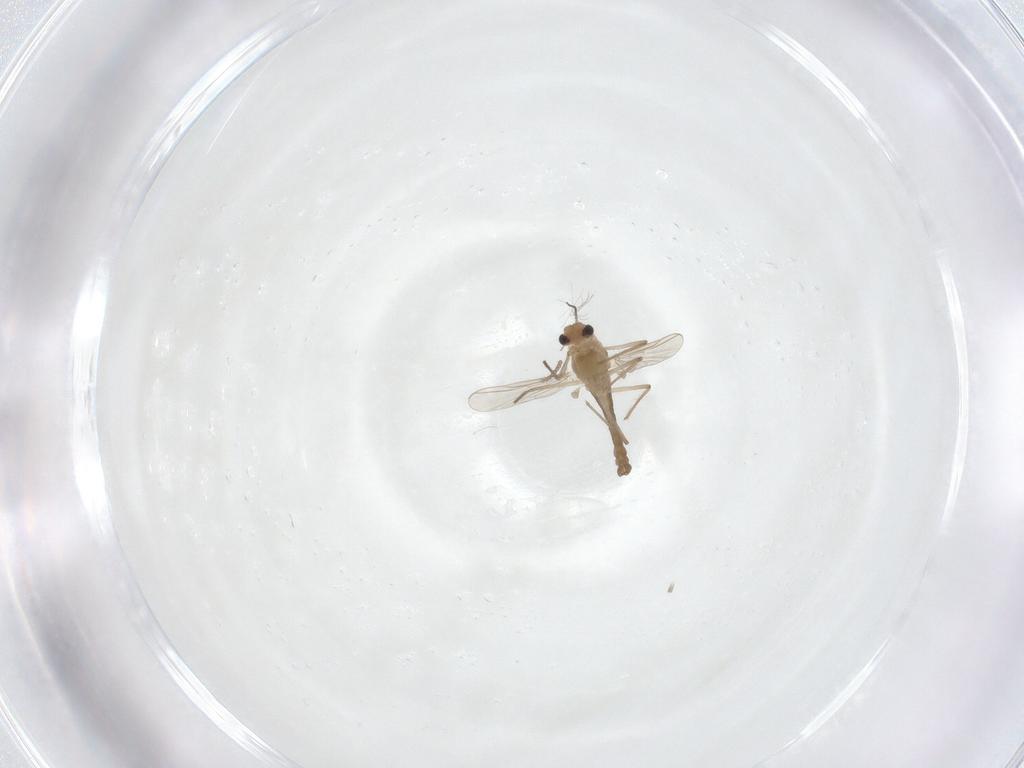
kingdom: Animalia
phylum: Arthropoda
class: Insecta
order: Diptera
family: Chironomidae
